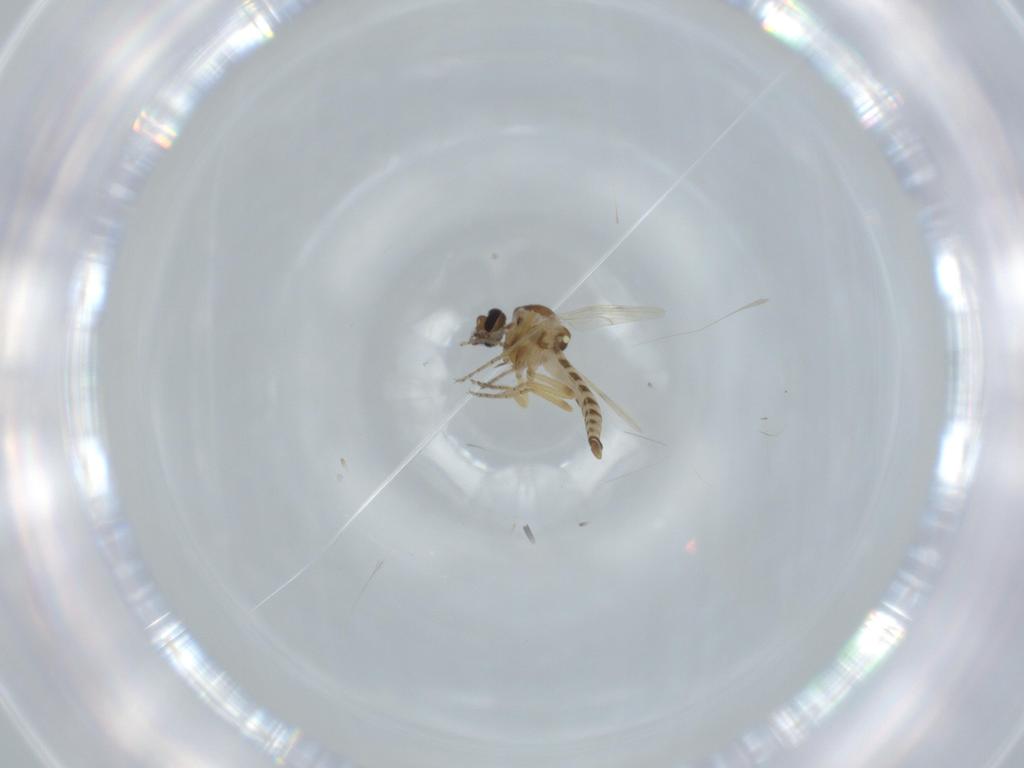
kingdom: Animalia
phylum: Arthropoda
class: Insecta
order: Diptera
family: Ceratopogonidae
